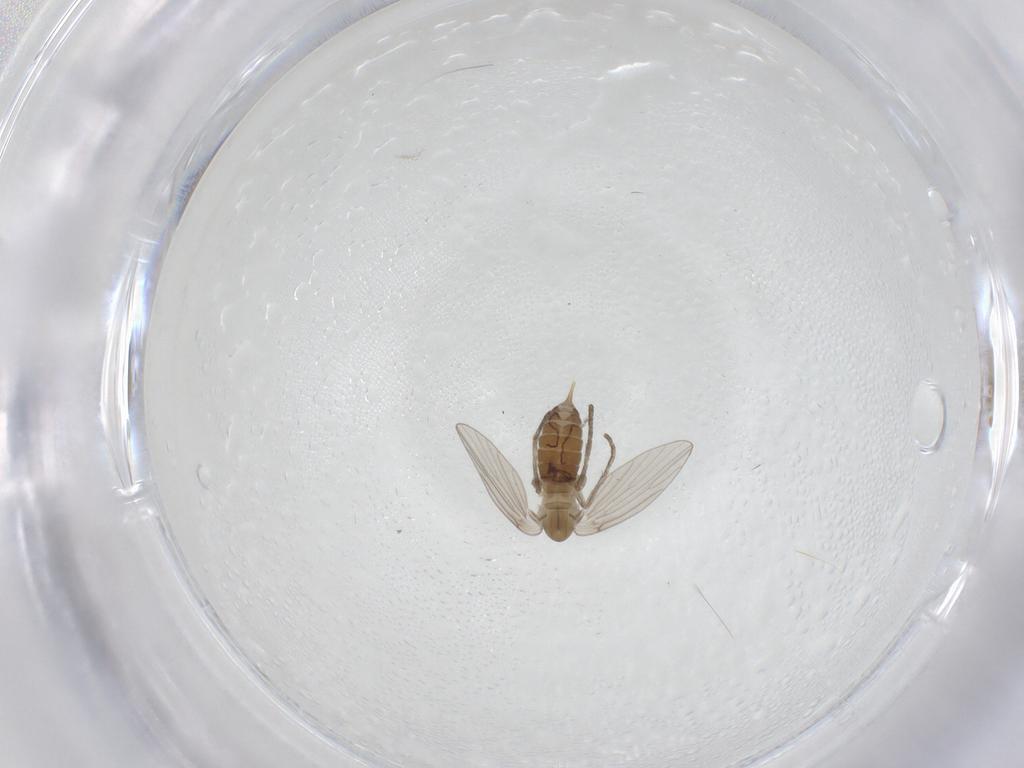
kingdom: Animalia
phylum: Arthropoda
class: Insecta
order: Diptera
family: Psychodidae
